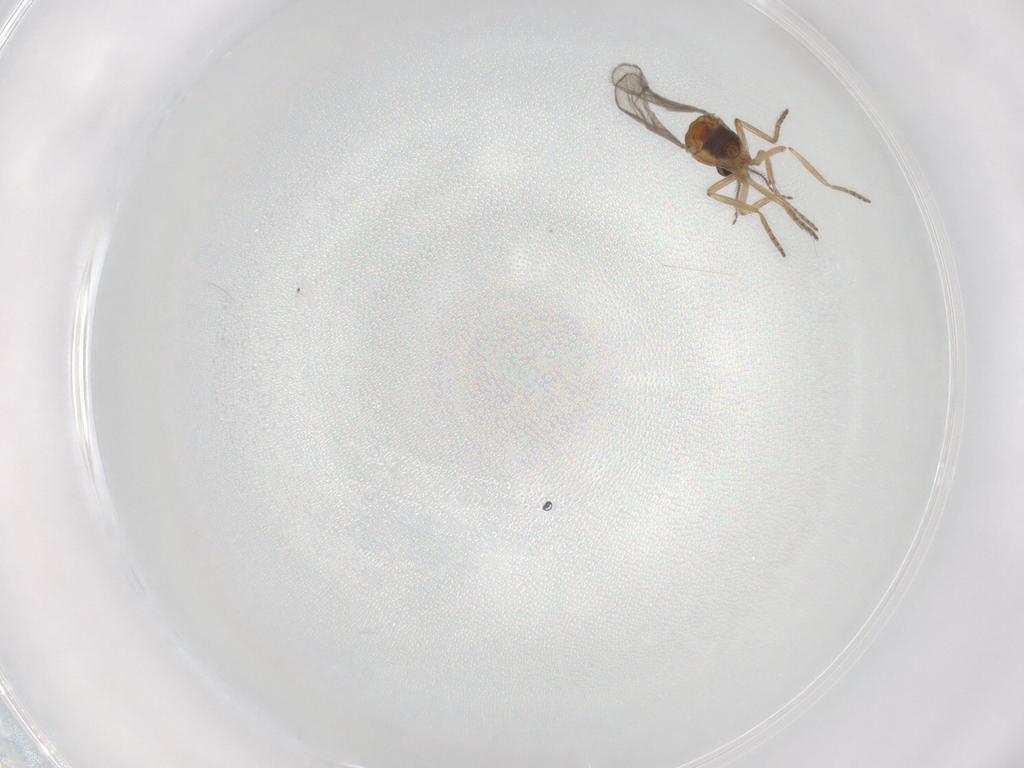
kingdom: Animalia
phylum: Arthropoda
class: Insecta
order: Diptera
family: Ceratopogonidae
